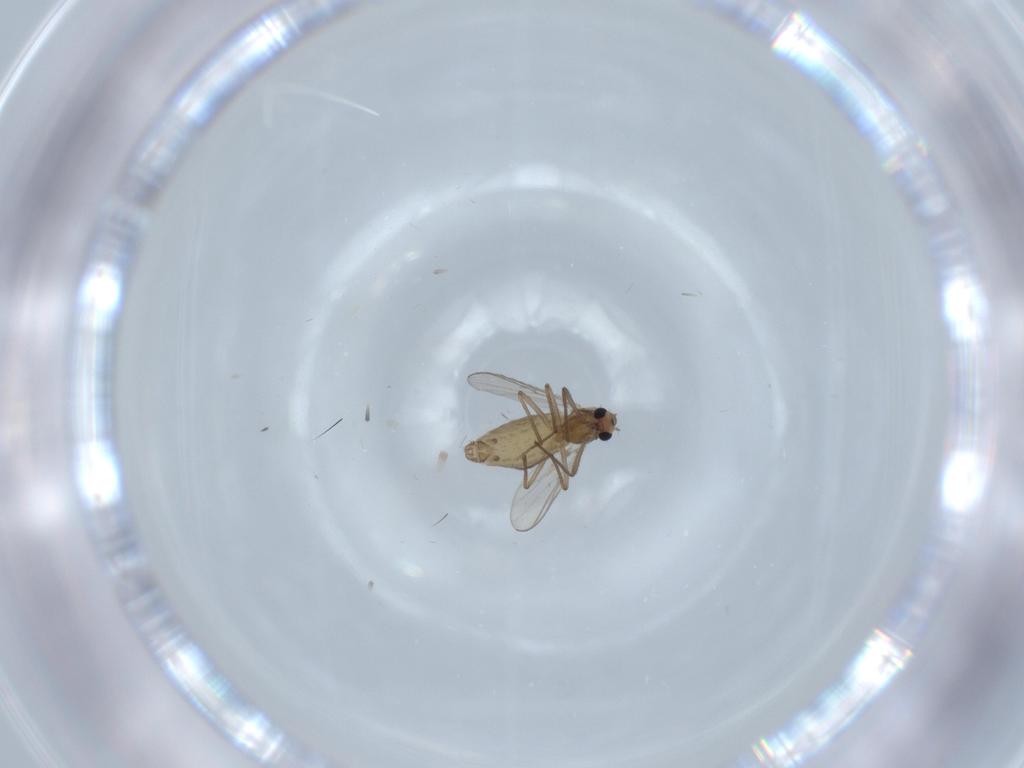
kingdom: Animalia
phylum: Arthropoda
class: Insecta
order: Diptera
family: Chironomidae
